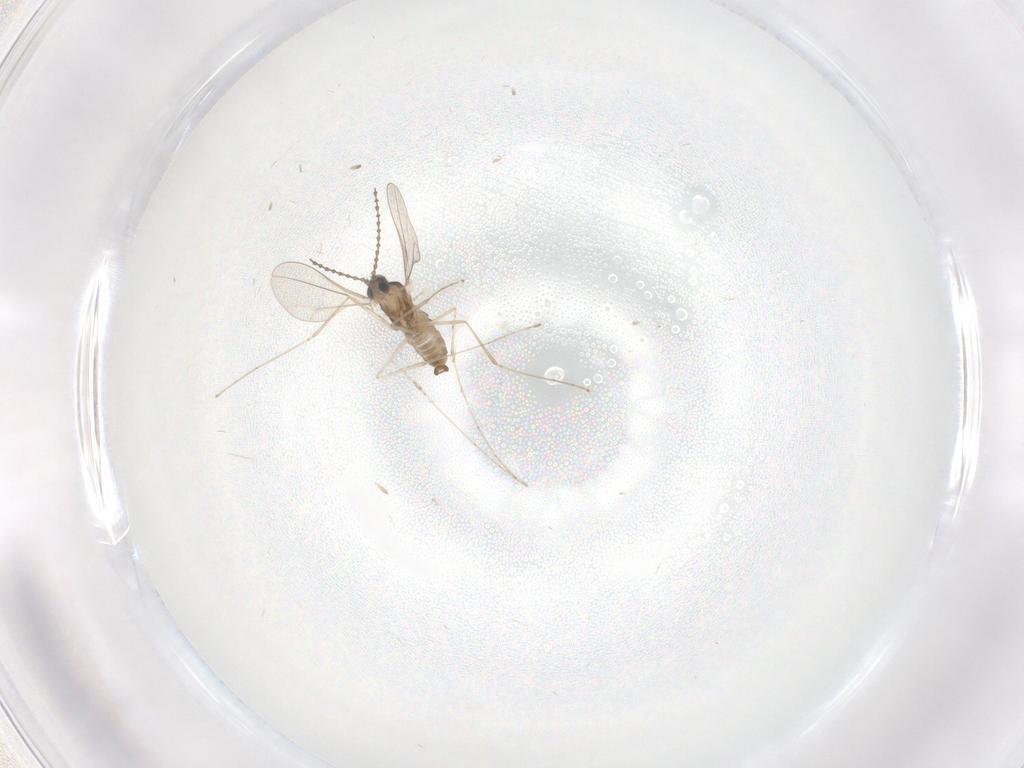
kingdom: Animalia
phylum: Arthropoda
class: Insecta
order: Diptera
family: Cecidomyiidae
